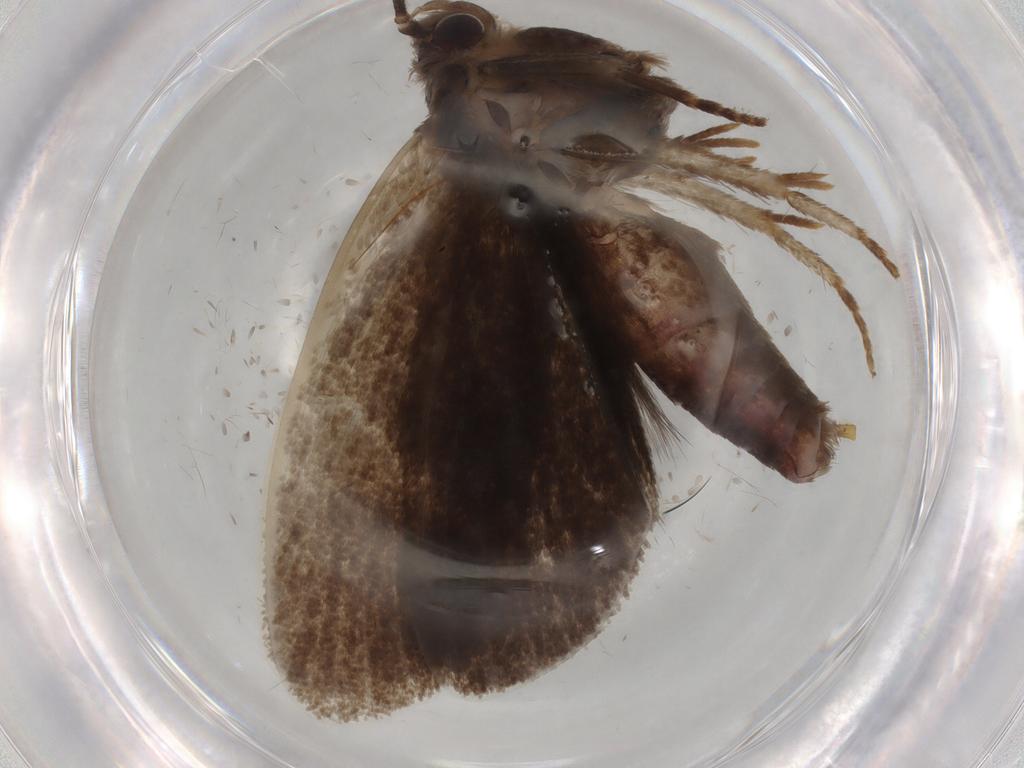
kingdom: Animalia
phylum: Arthropoda
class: Insecta
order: Lepidoptera
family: Tineidae
